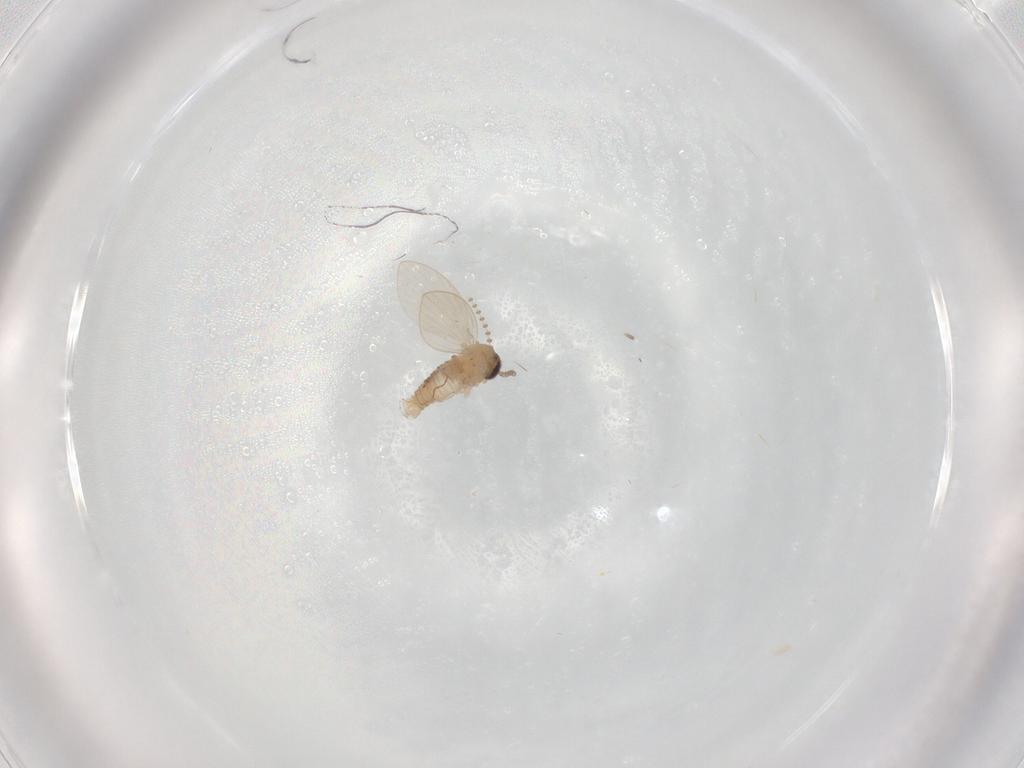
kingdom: Animalia
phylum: Arthropoda
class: Insecta
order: Diptera
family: Psychodidae
